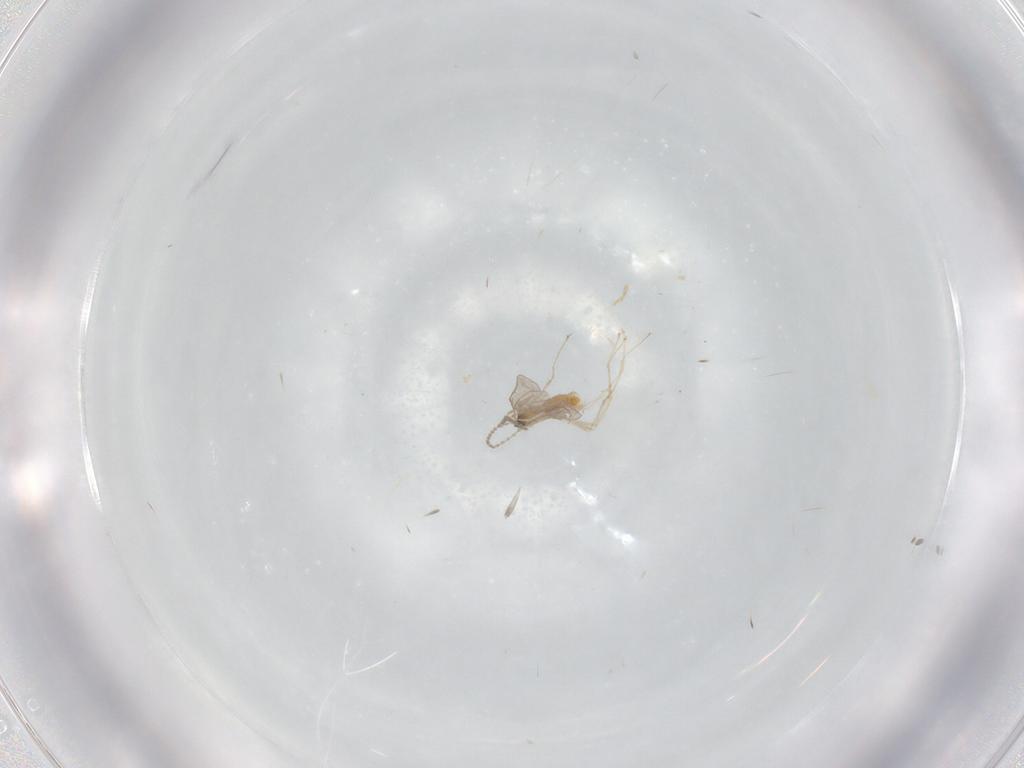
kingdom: Animalia
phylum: Arthropoda
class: Insecta
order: Diptera
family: Cecidomyiidae
